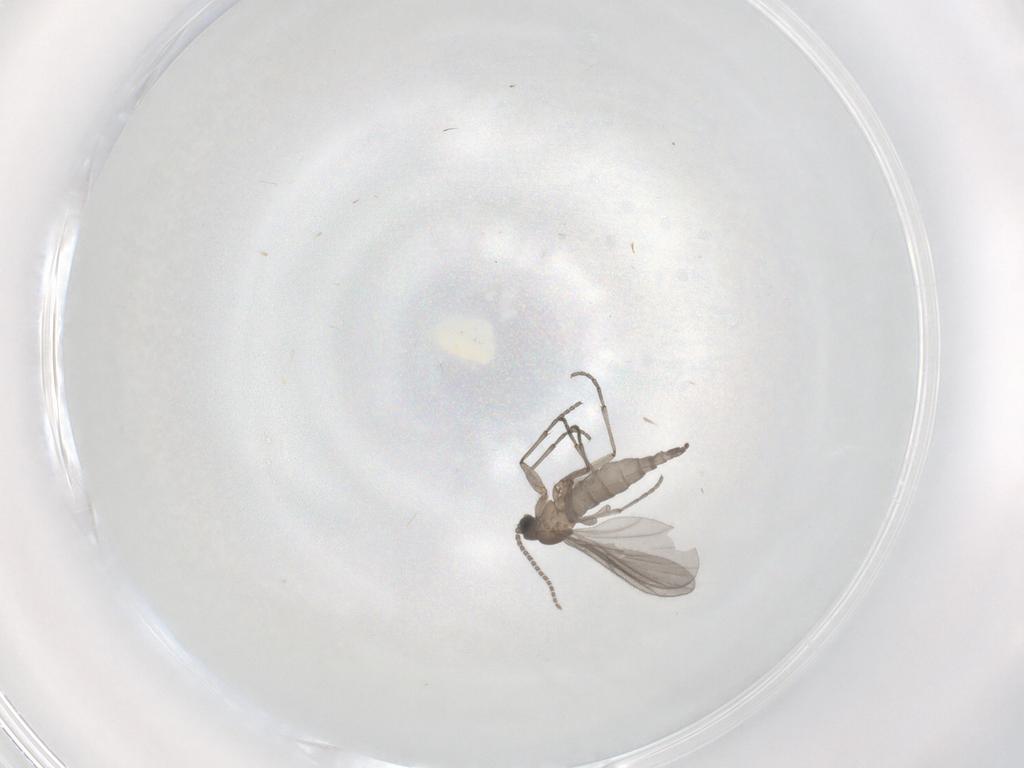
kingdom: Animalia
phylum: Arthropoda
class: Insecta
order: Diptera
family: Sciaridae
